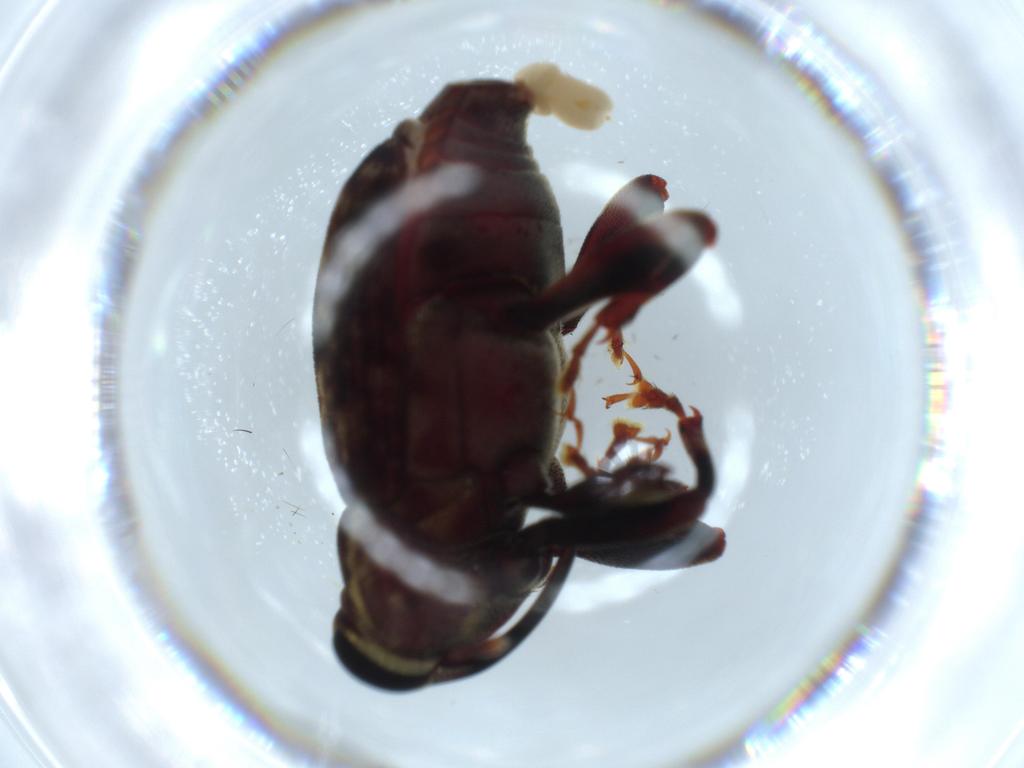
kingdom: Animalia
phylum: Arthropoda
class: Insecta
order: Coleoptera
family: Curculionidae
